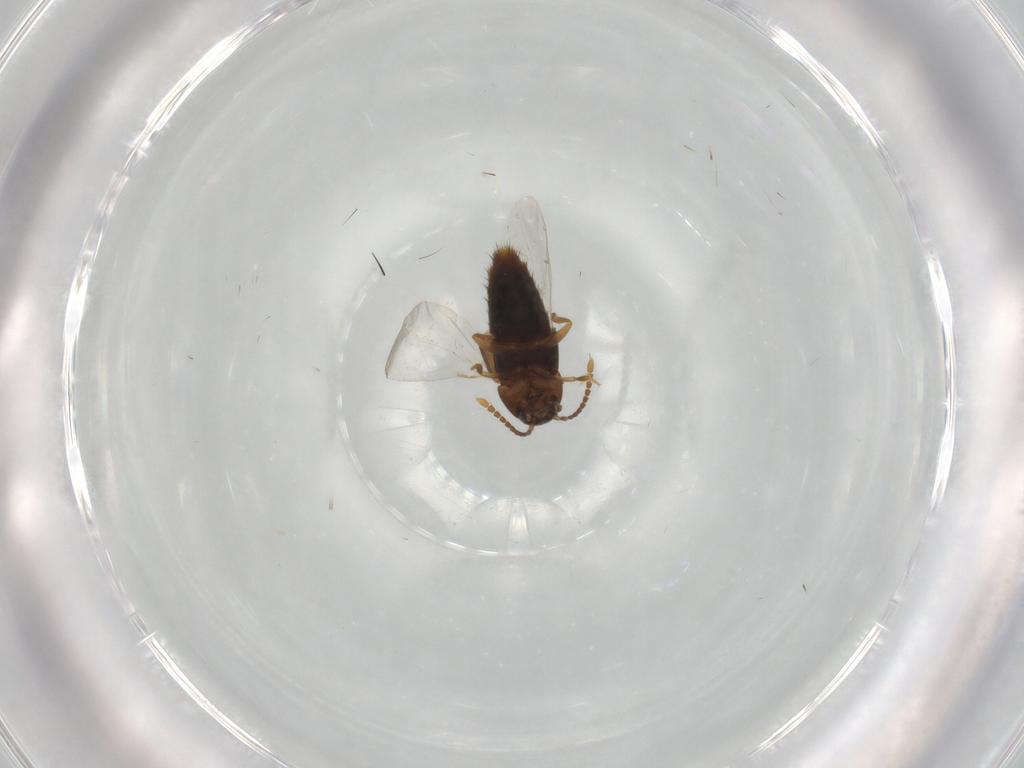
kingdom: Animalia
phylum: Arthropoda
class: Insecta
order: Coleoptera
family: Staphylinidae
